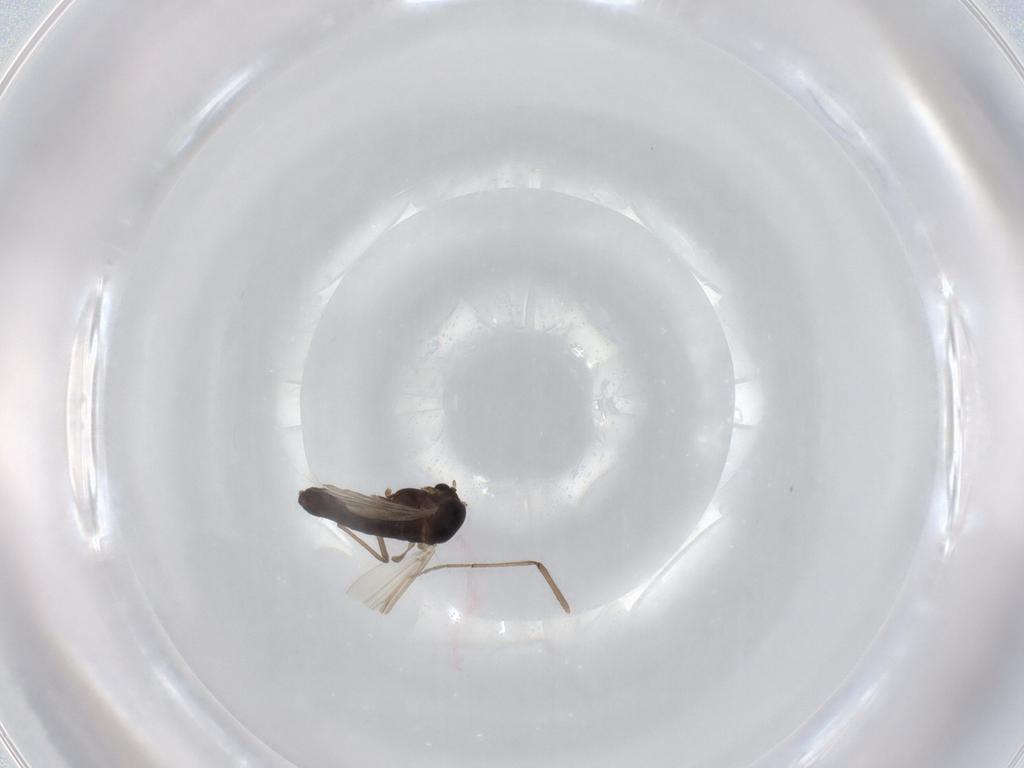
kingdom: Animalia
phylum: Arthropoda
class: Insecta
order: Diptera
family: Chironomidae
